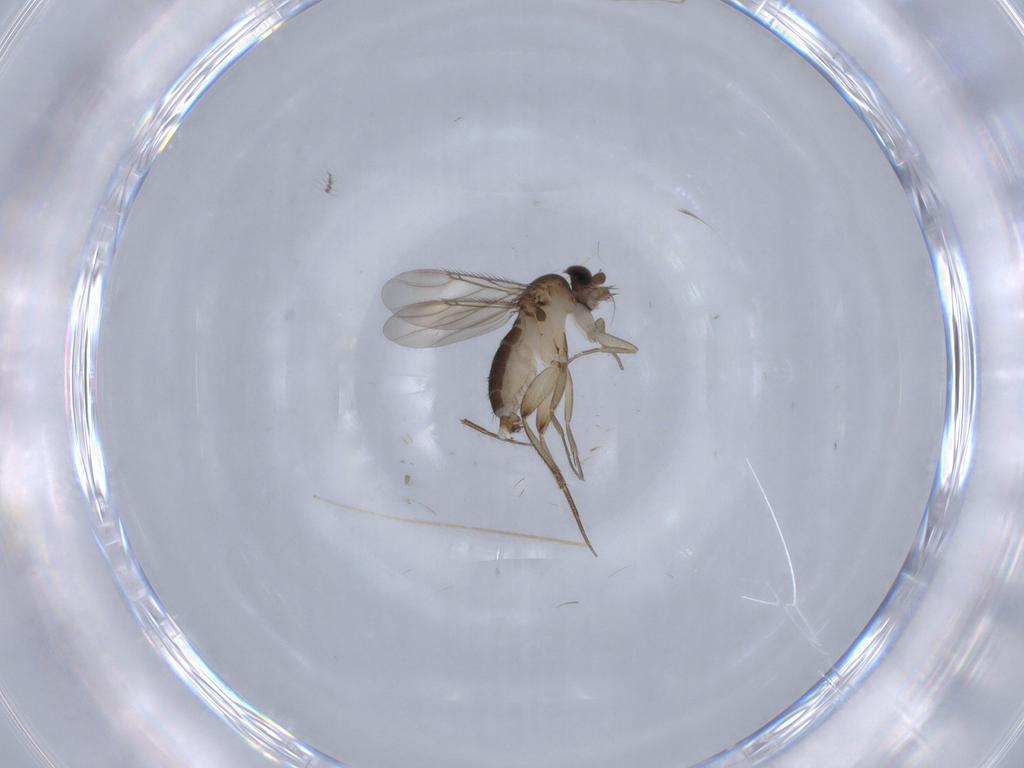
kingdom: Animalia
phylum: Arthropoda
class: Insecta
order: Diptera
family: Phoridae
